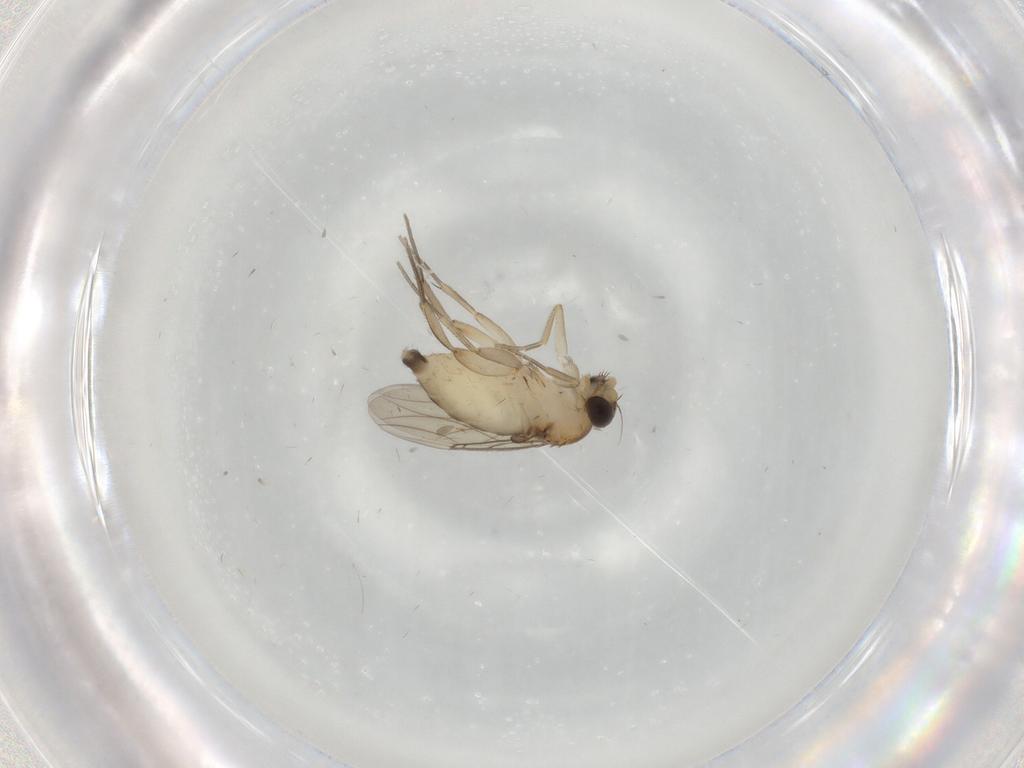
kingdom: Animalia
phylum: Arthropoda
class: Insecta
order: Diptera
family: Phoridae
